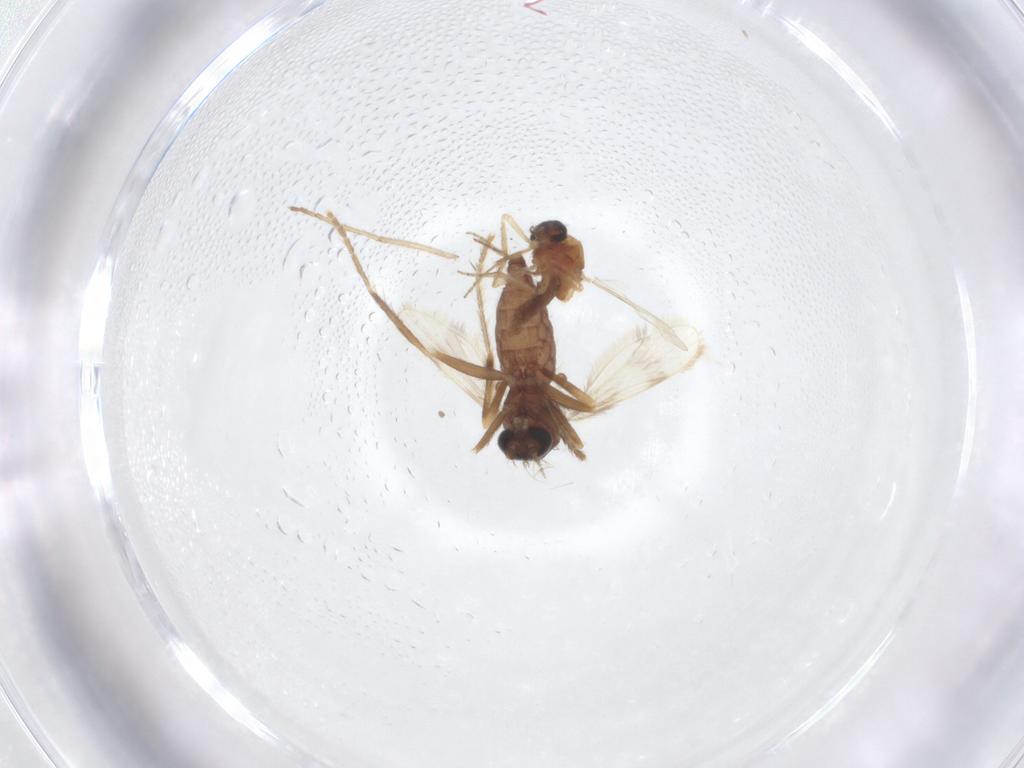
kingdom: Animalia
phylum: Arthropoda
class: Insecta
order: Diptera
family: Corethrellidae
